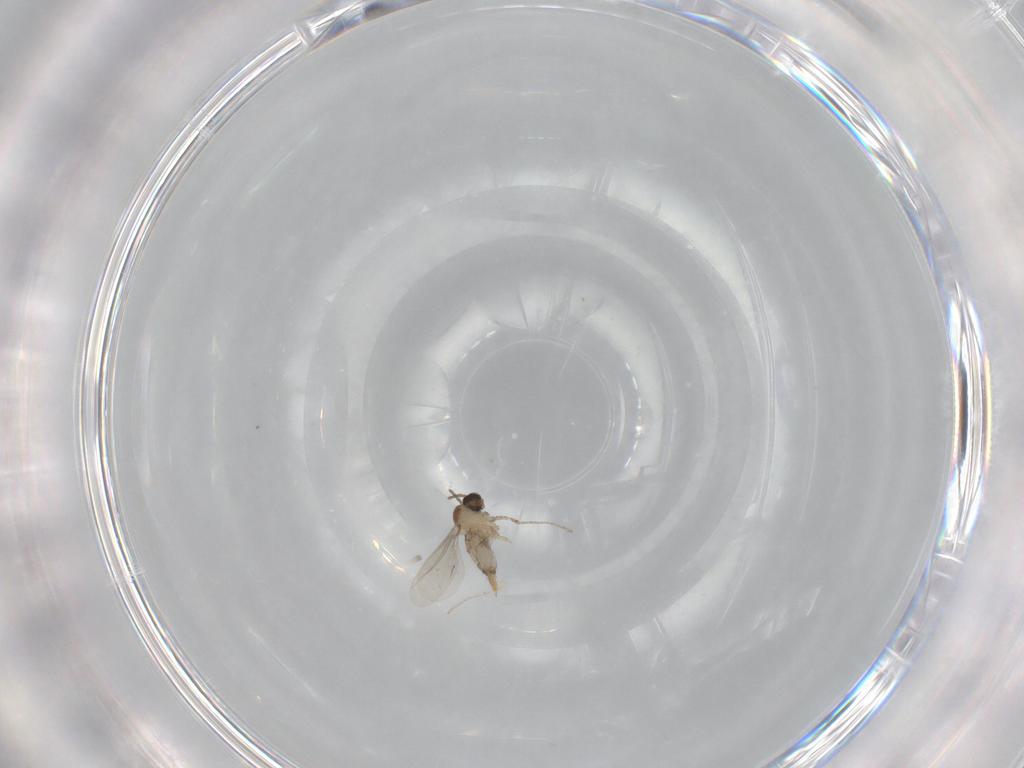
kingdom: Animalia
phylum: Arthropoda
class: Insecta
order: Diptera
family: Cecidomyiidae
